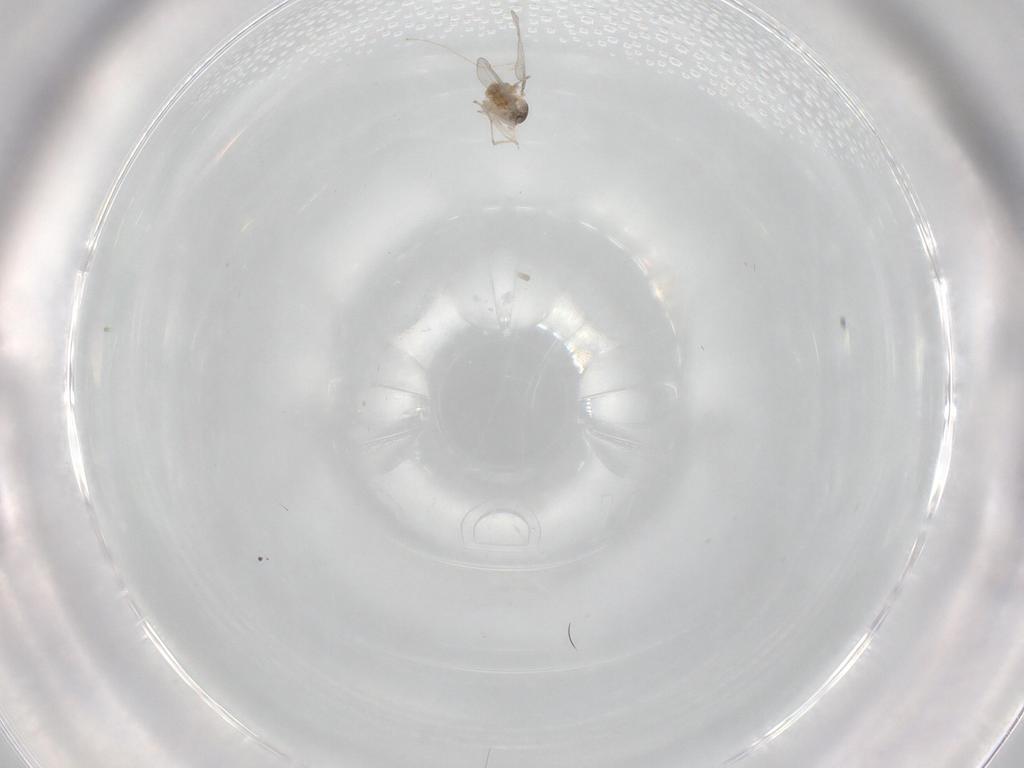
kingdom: Animalia
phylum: Arthropoda
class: Insecta
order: Diptera
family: Cecidomyiidae
